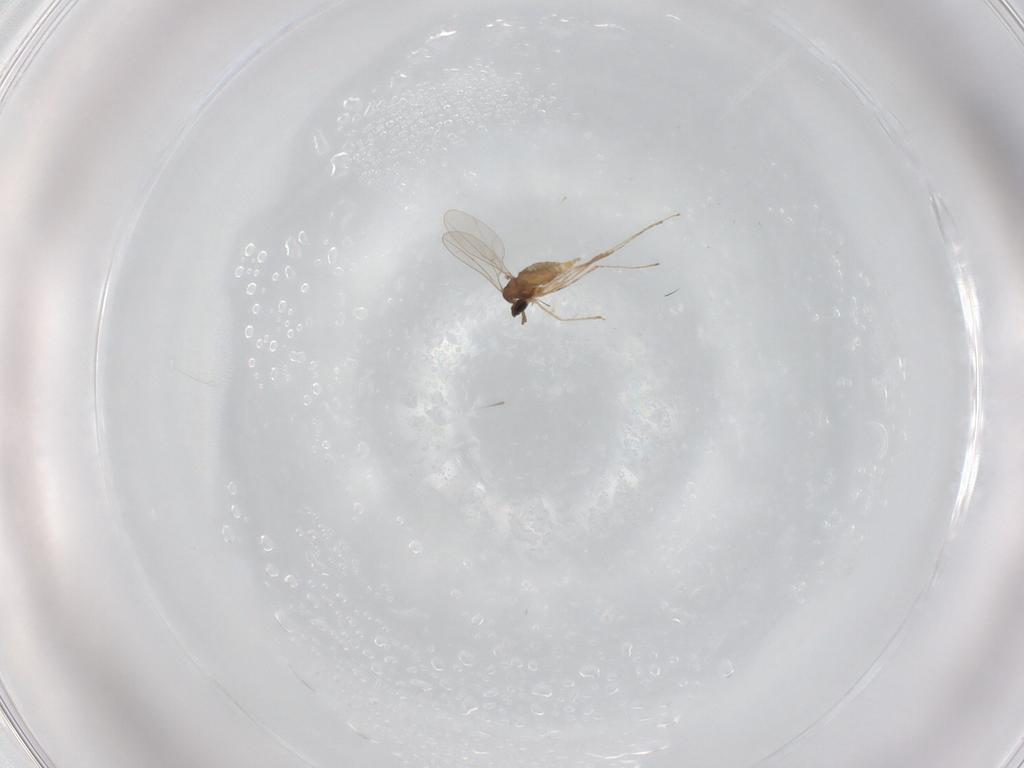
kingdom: Animalia
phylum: Arthropoda
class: Insecta
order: Diptera
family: Cecidomyiidae
